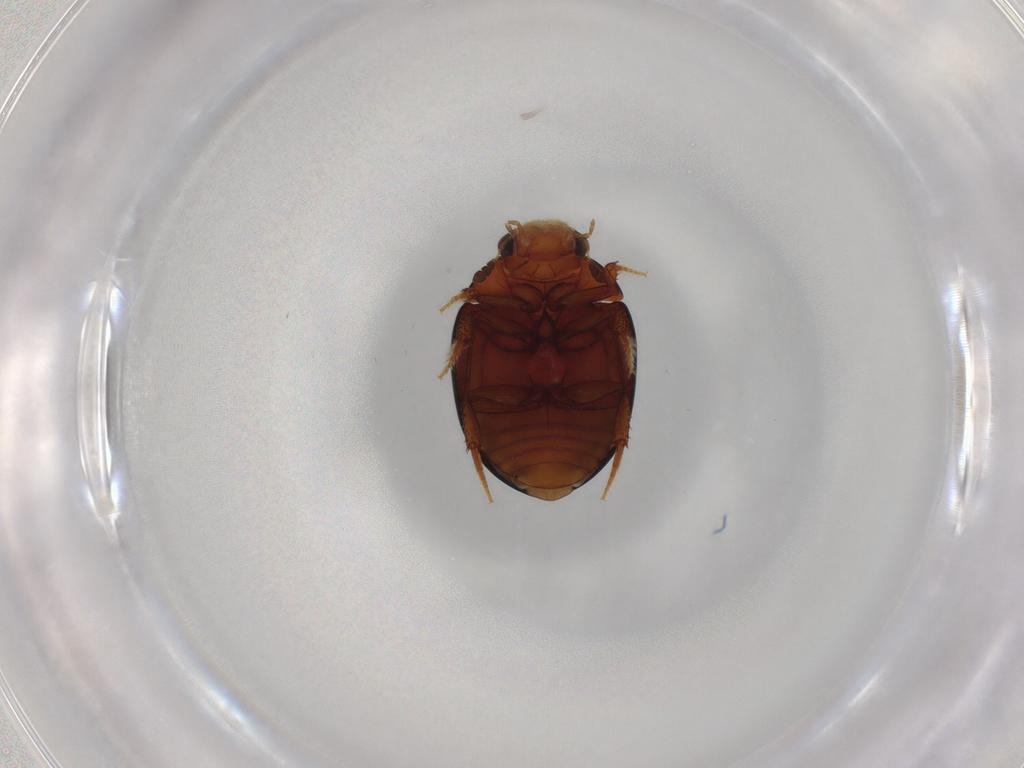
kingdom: Animalia
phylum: Arthropoda
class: Insecta
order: Coleoptera
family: Hydrophilidae
